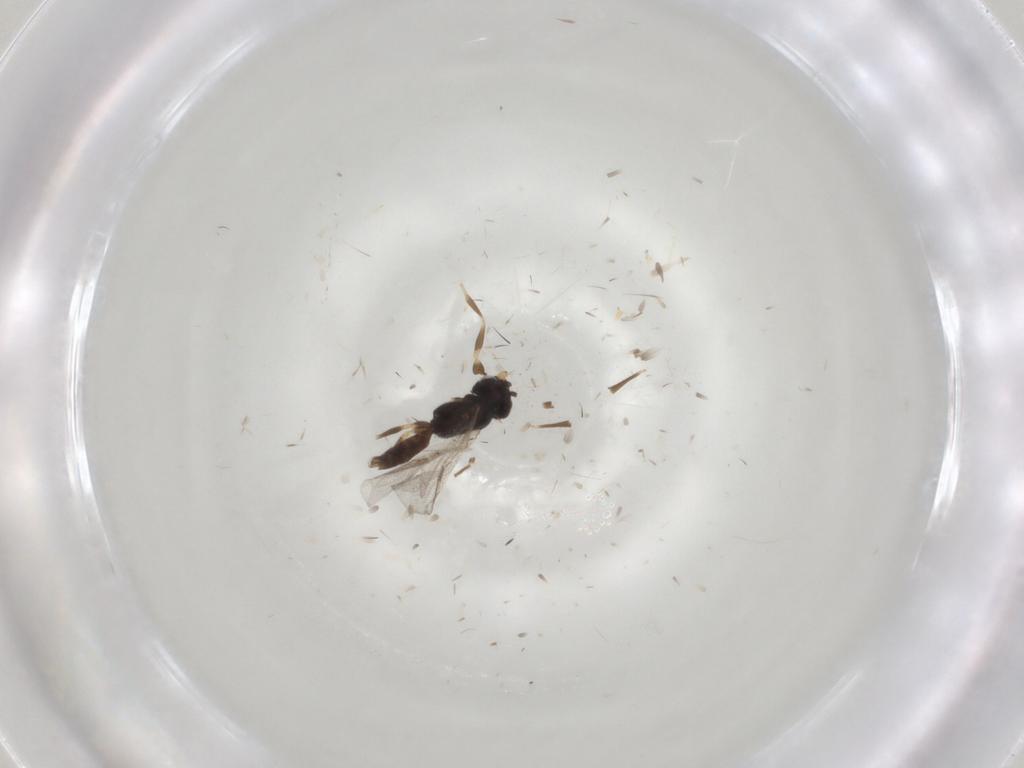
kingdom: Animalia
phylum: Arthropoda
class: Insecta
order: Hymenoptera
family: Dryinidae
